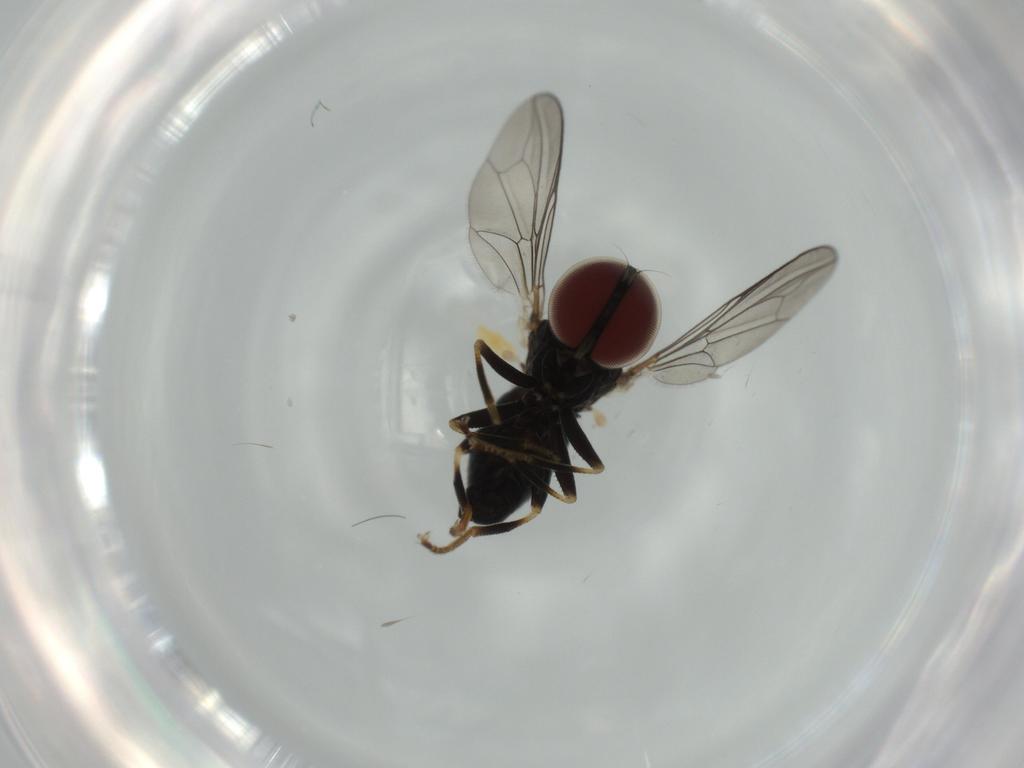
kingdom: Animalia
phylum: Arthropoda
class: Insecta
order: Diptera
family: Pipunculidae
